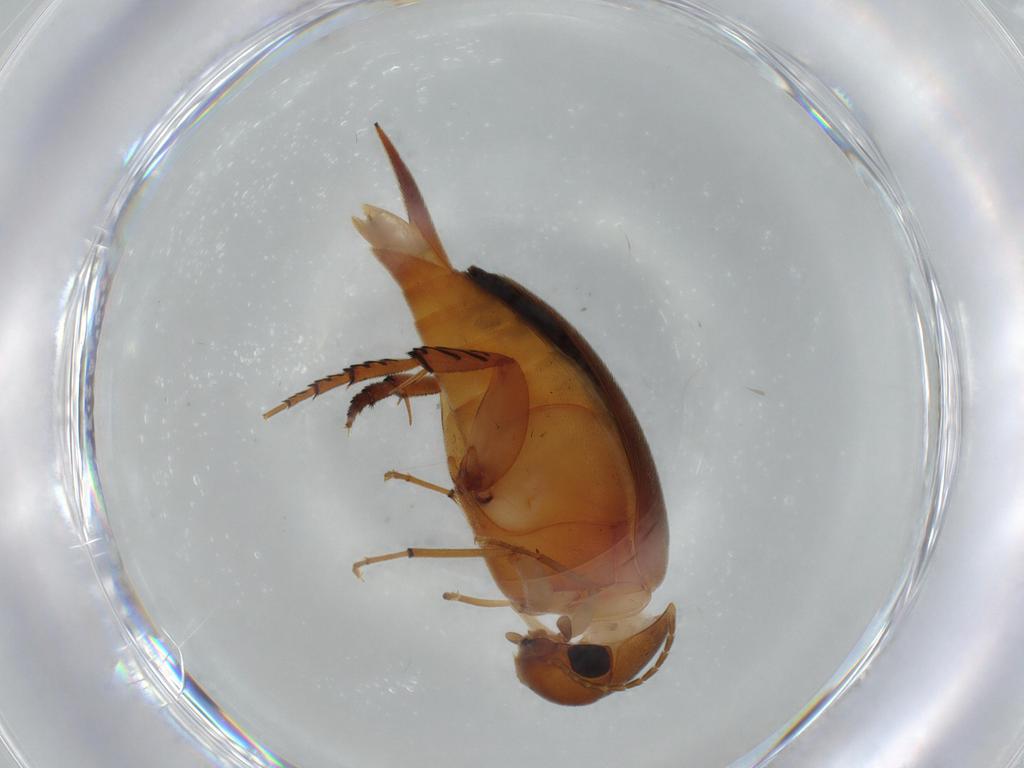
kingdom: Animalia
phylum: Arthropoda
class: Insecta
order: Coleoptera
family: Curculionidae
